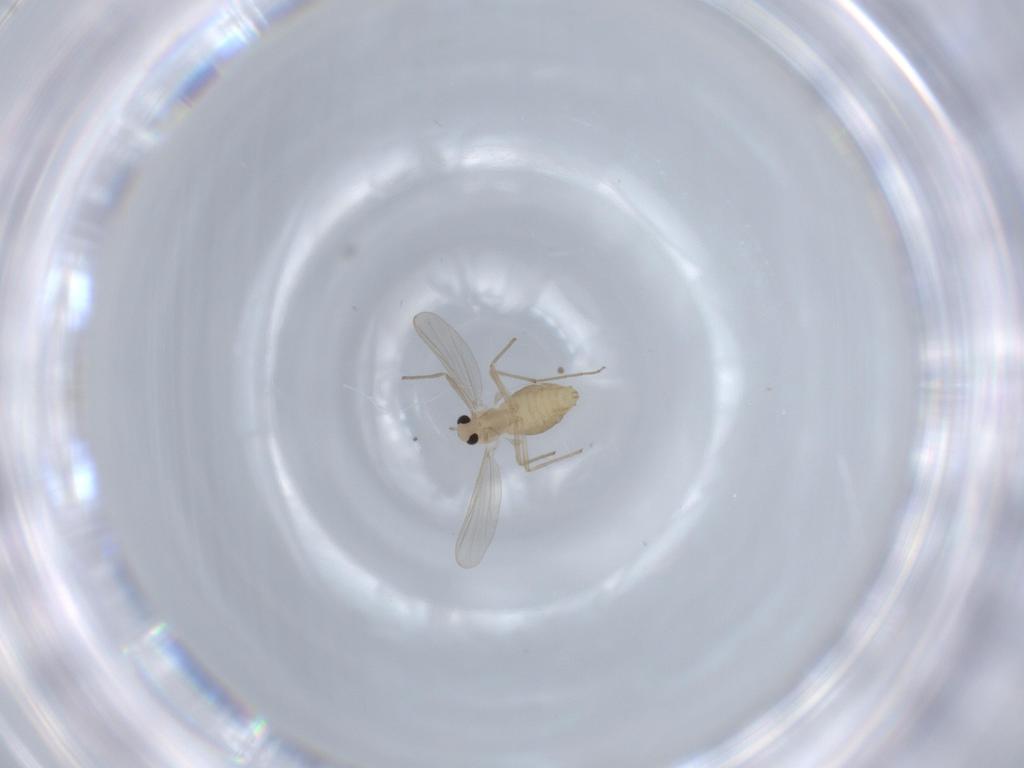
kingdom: Animalia
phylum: Arthropoda
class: Insecta
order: Diptera
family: Chironomidae
